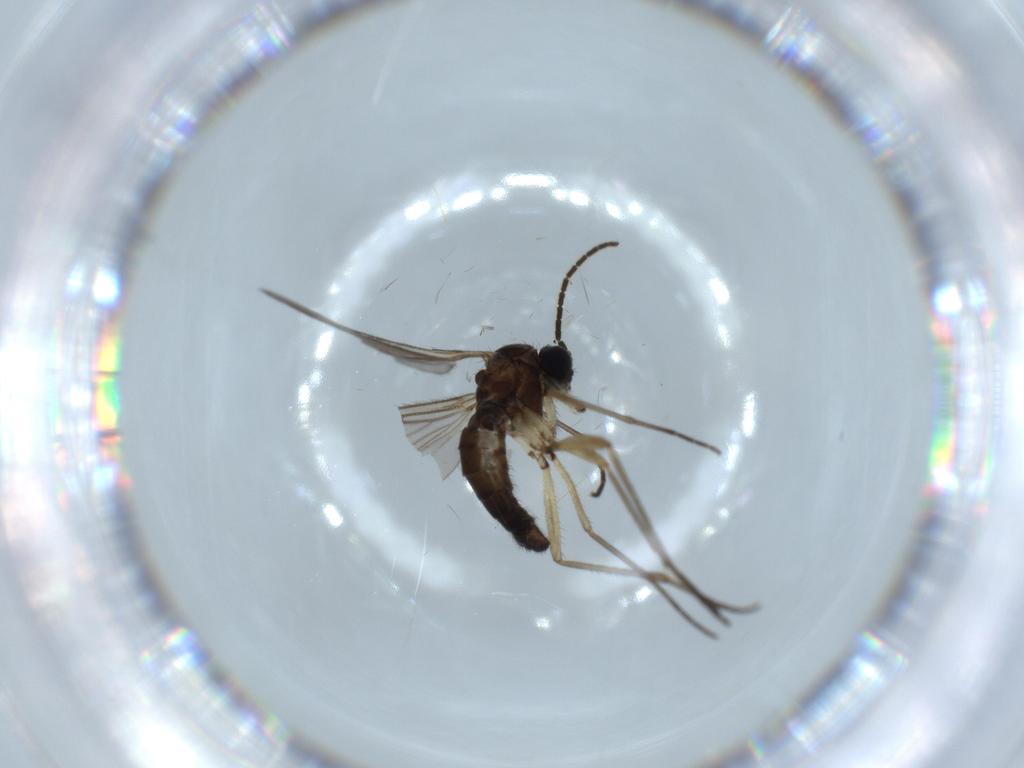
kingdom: Animalia
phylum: Arthropoda
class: Insecta
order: Diptera
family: Sciaridae
